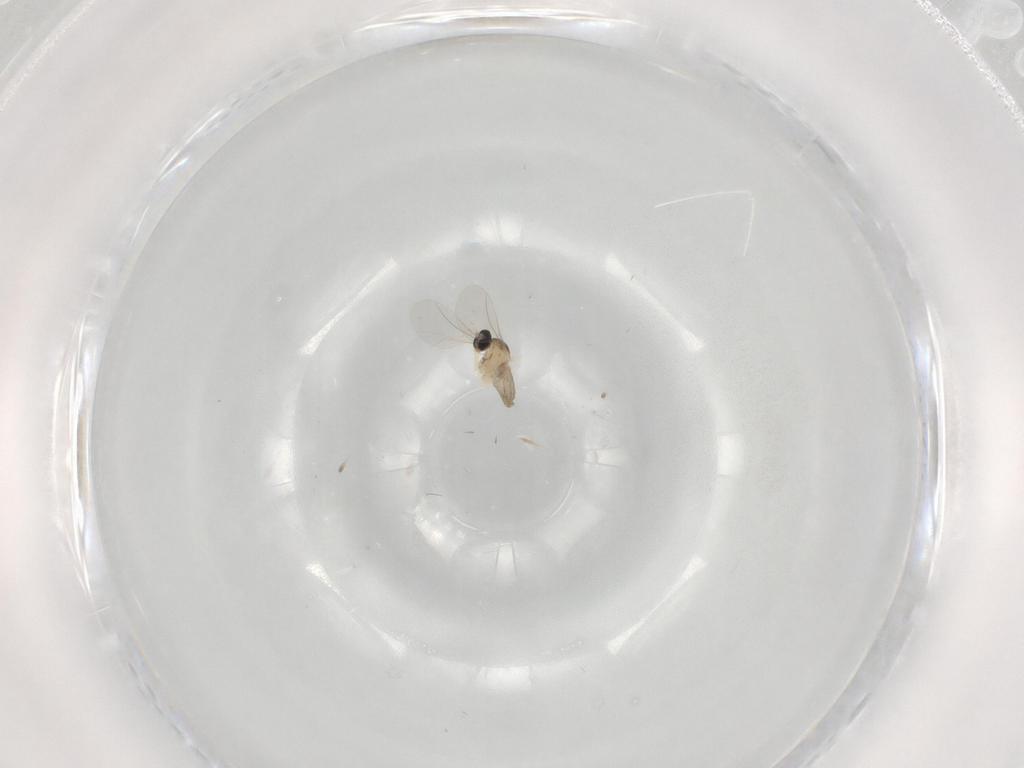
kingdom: Animalia
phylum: Arthropoda
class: Insecta
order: Diptera
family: Cecidomyiidae
